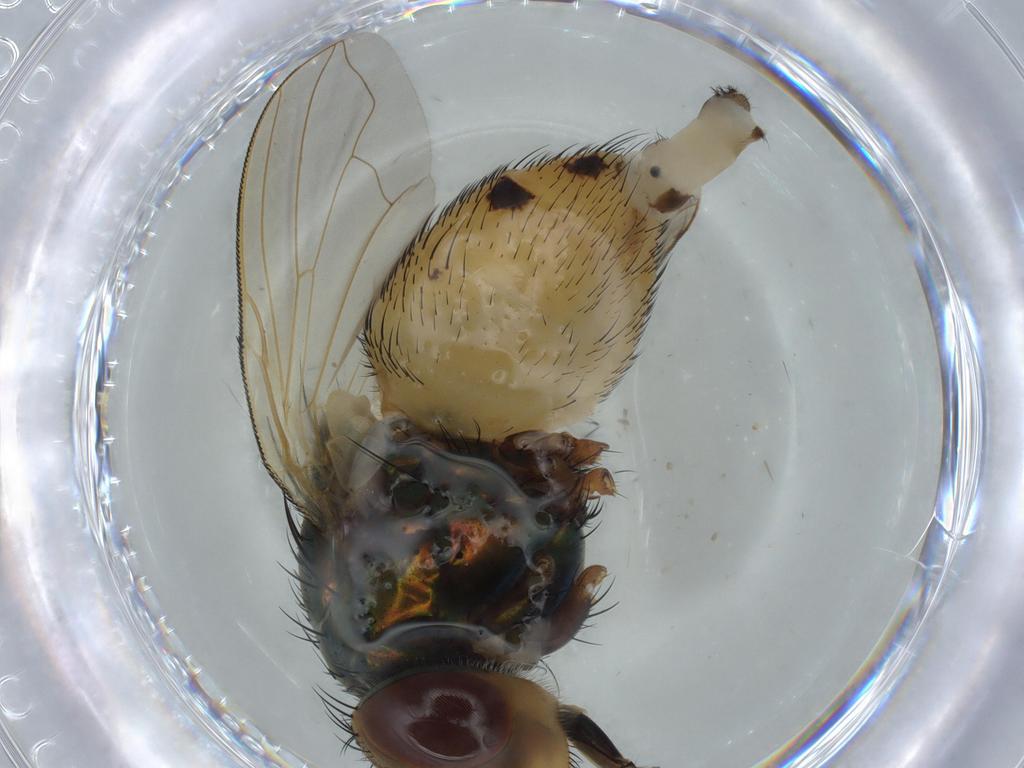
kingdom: Animalia
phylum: Arthropoda
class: Insecta
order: Diptera
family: Calliphoridae
